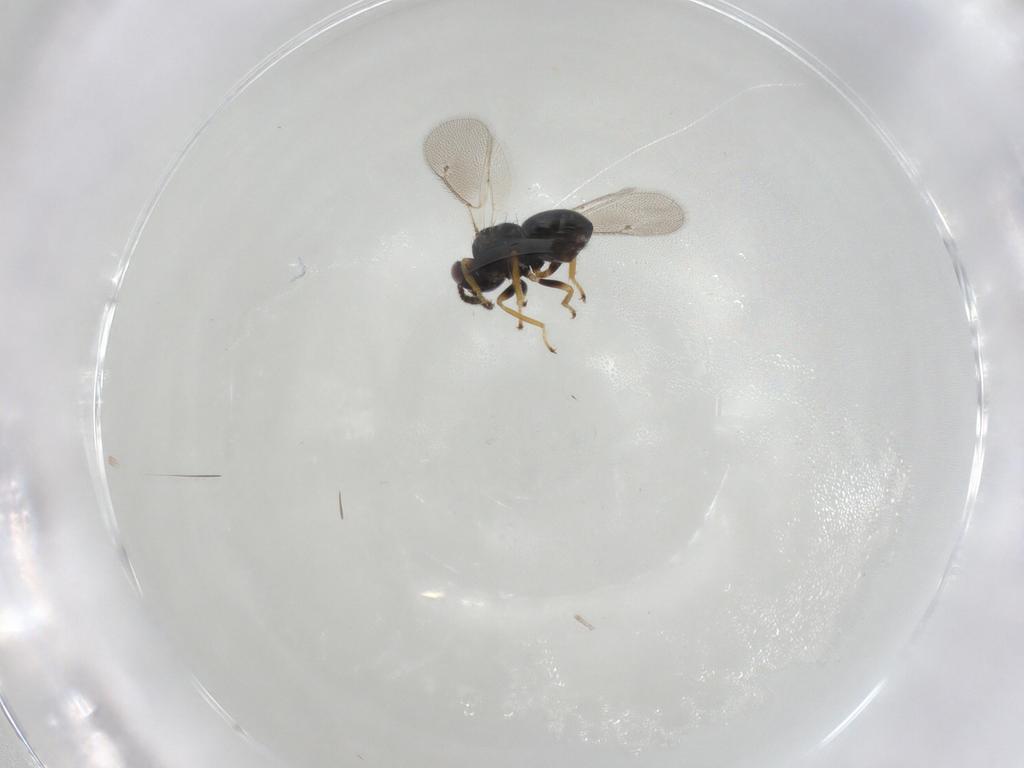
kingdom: Animalia
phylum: Arthropoda
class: Insecta
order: Hymenoptera
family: Eulophidae
